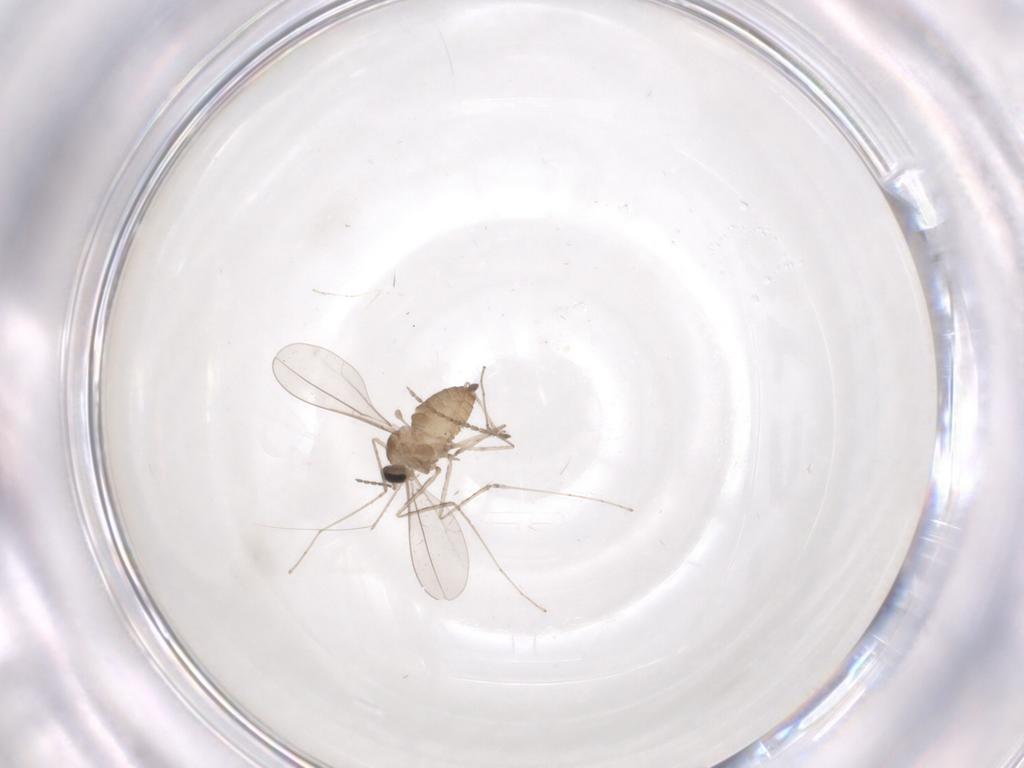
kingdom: Animalia
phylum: Arthropoda
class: Insecta
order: Diptera
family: Cecidomyiidae
